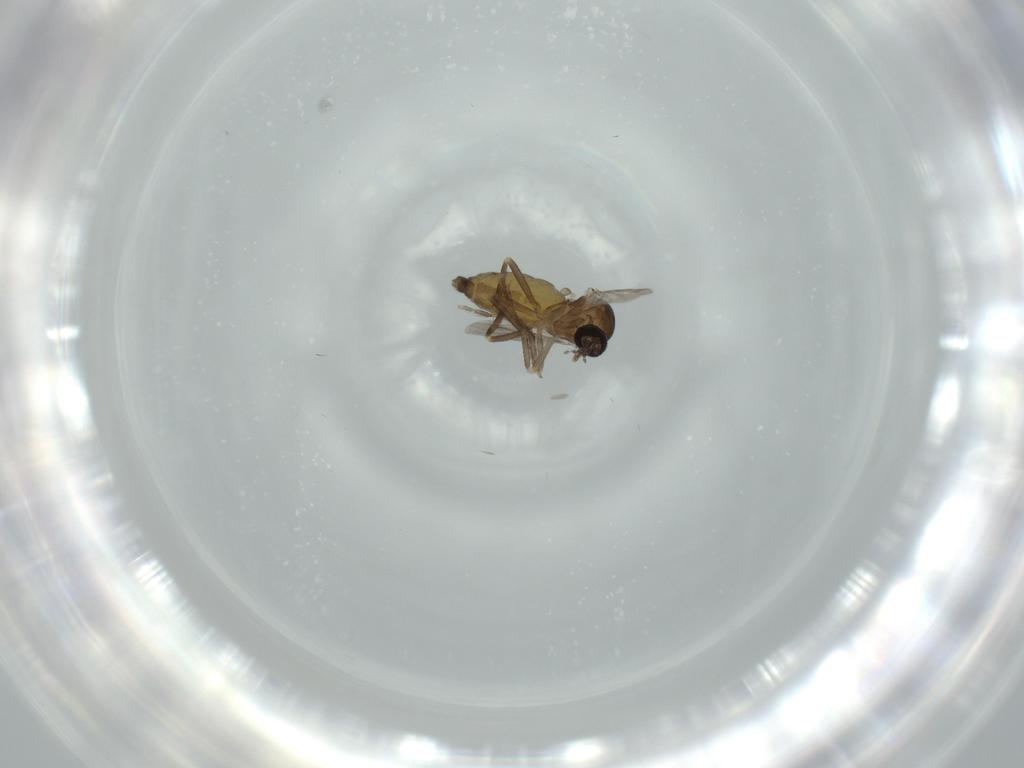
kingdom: Animalia
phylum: Arthropoda
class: Insecta
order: Diptera
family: Ceratopogonidae
